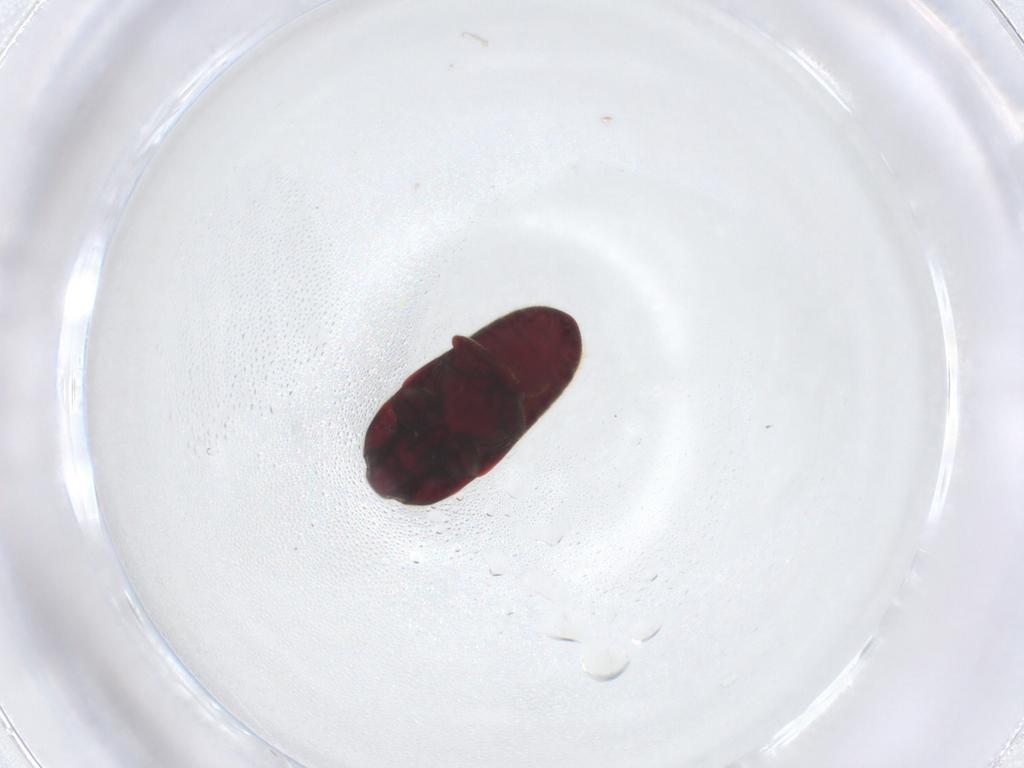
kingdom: Animalia
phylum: Arthropoda
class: Insecta
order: Coleoptera
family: Throscidae
